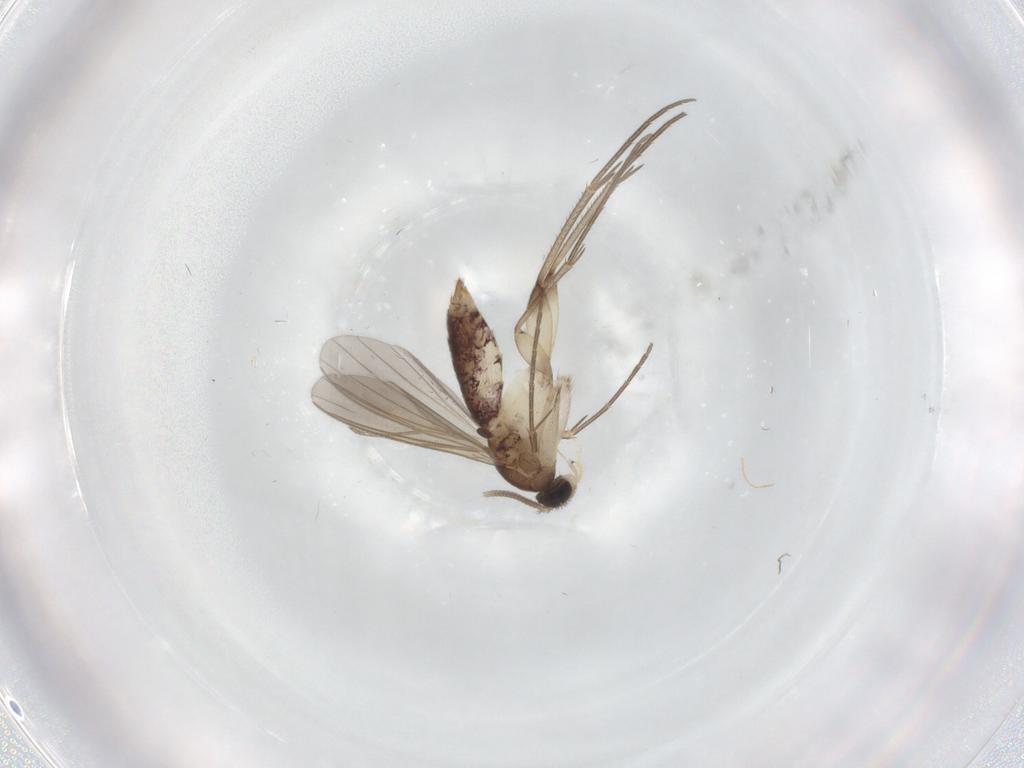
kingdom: Animalia
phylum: Arthropoda
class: Insecta
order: Diptera
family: Mycetophilidae
